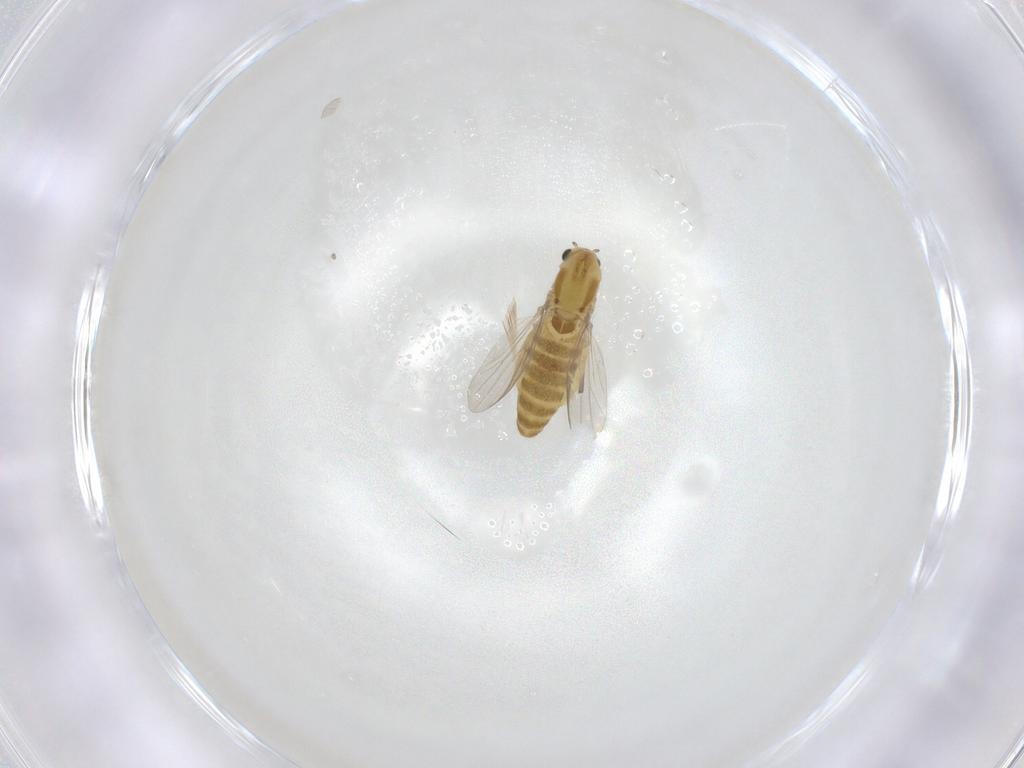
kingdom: Animalia
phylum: Arthropoda
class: Insecta
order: Diptera
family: Chironomidae
